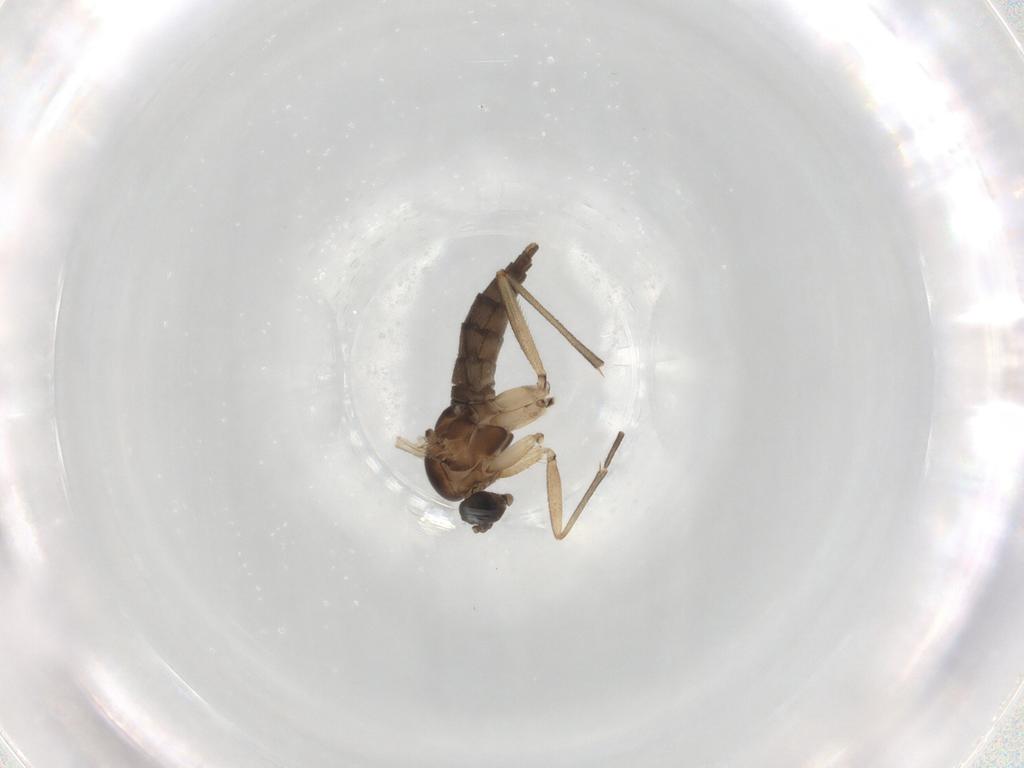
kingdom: Animalia
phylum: Arthropoda
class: Insecta
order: Diptera
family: Sciaridae
